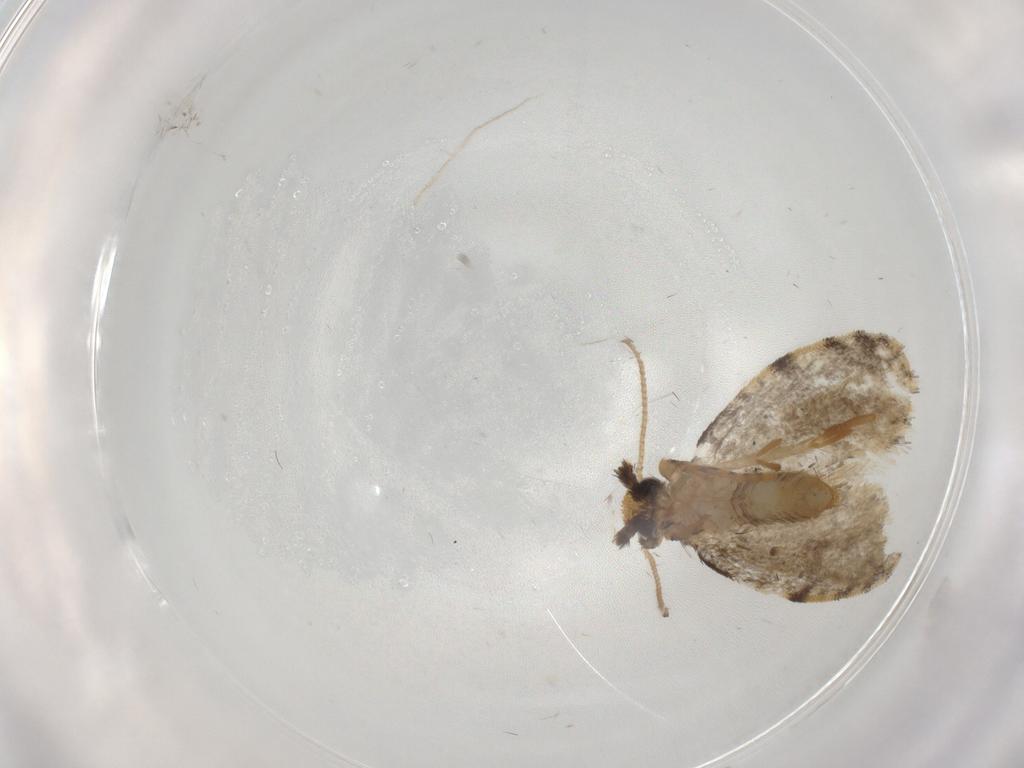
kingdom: Animalia
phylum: Arthropoda
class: Insecta
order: Lepidoptera
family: Psychidae
